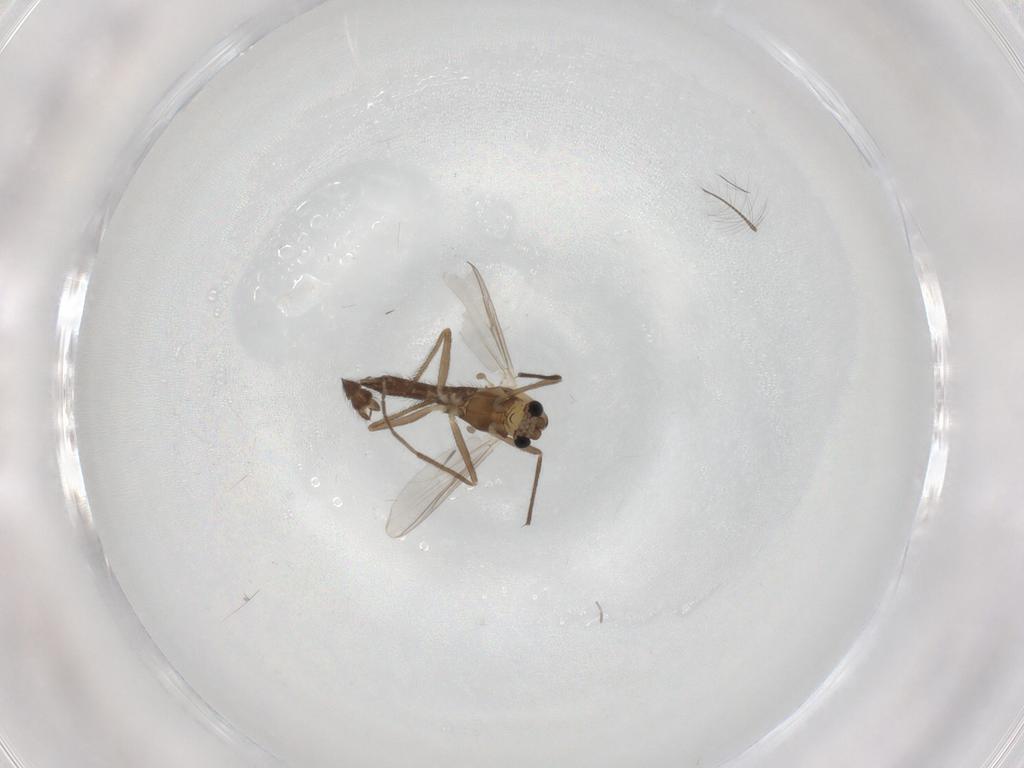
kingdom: Animalia
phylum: Arthropoda
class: Insecta
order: Diptera
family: Chironomidae
